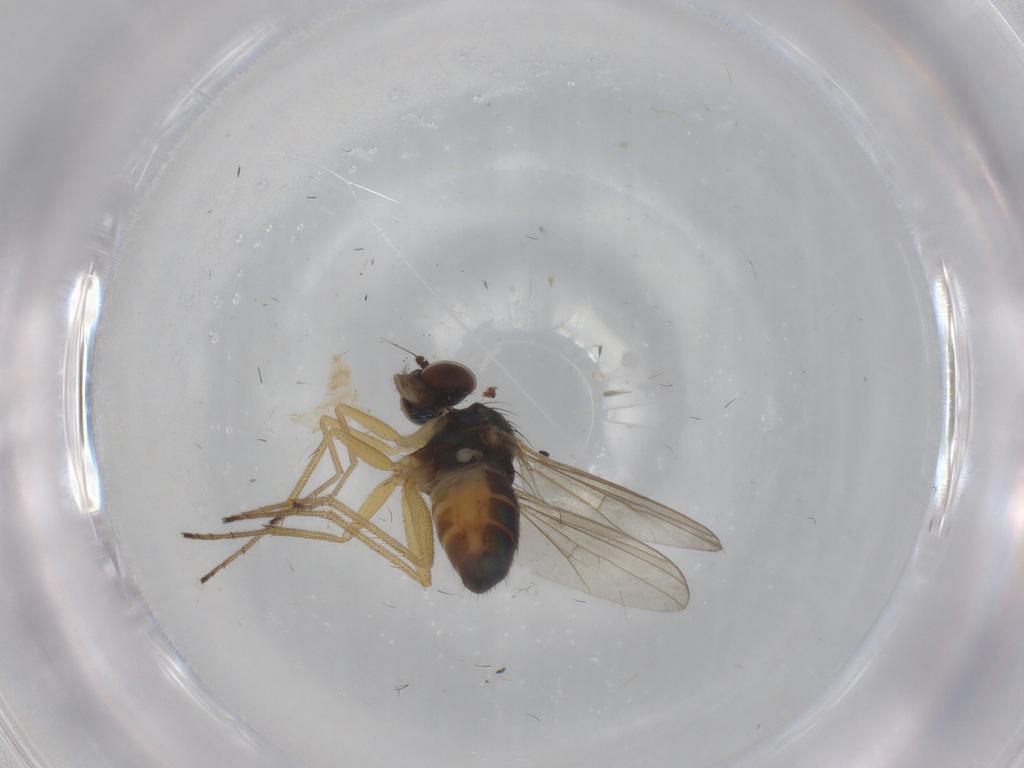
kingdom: Animalia
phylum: Arthropoda
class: Insecta
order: Diptera
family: Dolichopodidae
